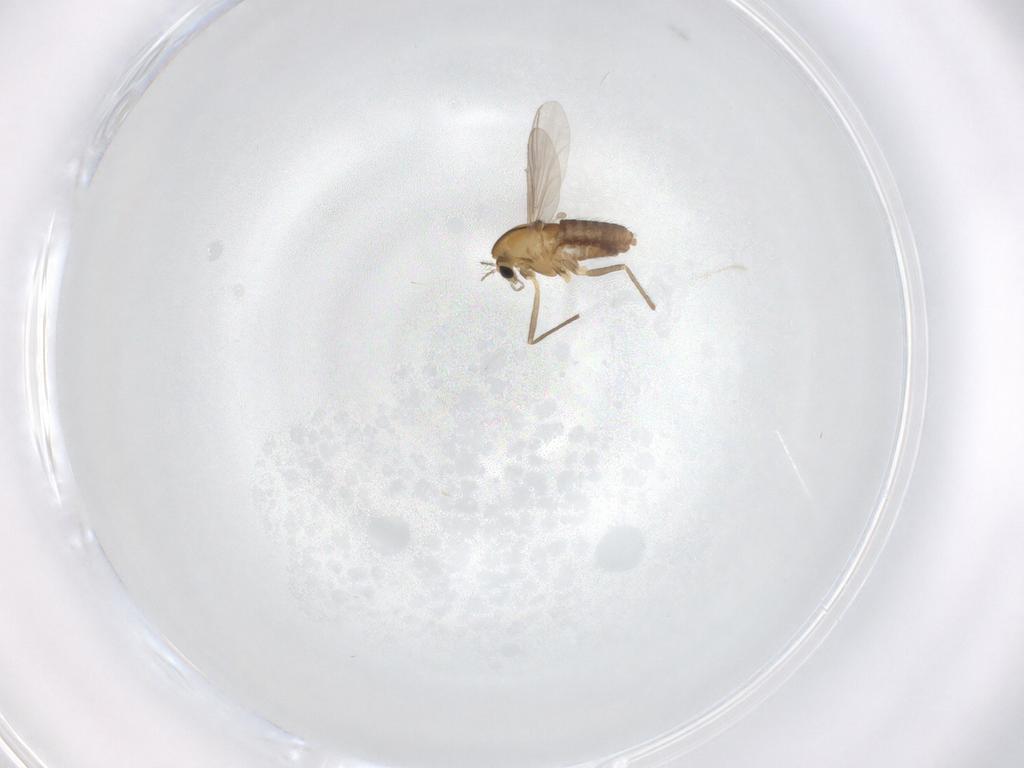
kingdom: Animalia
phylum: Arthropoda
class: Insecta
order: Diptera
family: Chironomidae
